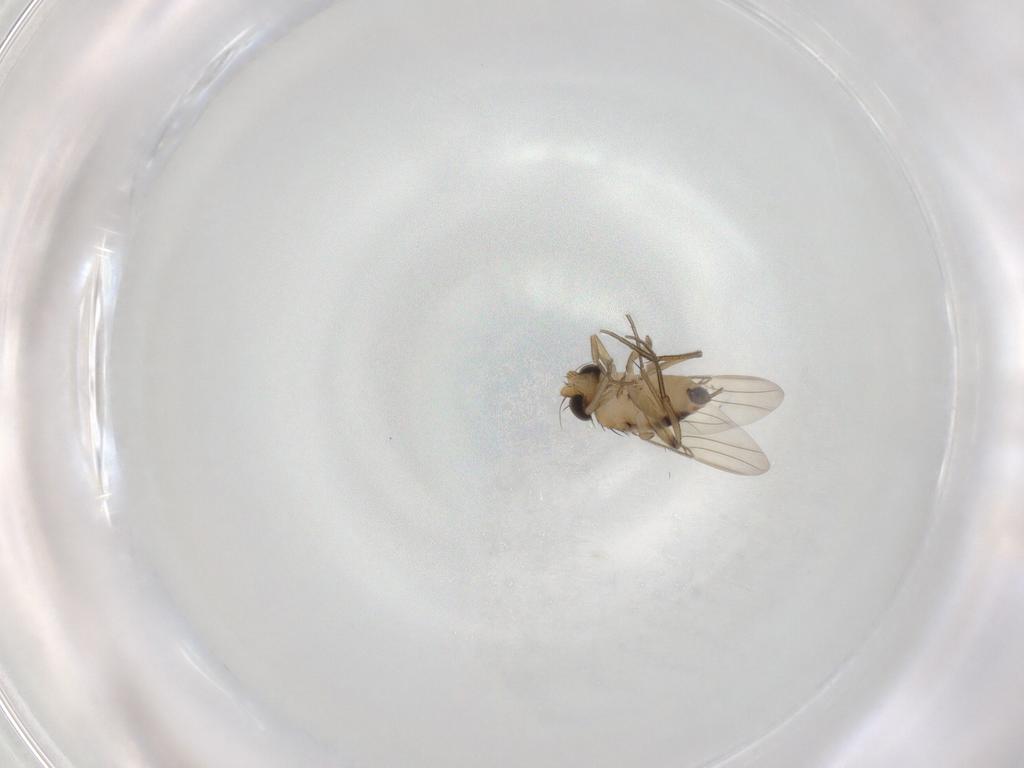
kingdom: Animalia
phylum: Arthropoda
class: Insecta
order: Diptera
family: Phoridae
